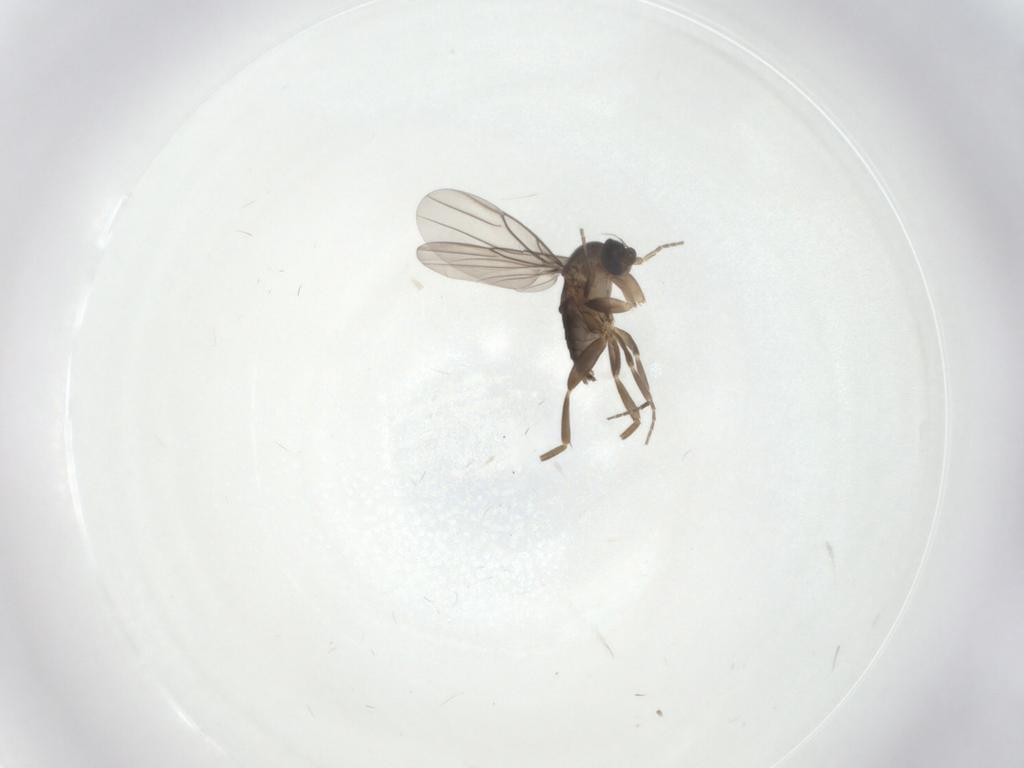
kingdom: Animalia
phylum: Arthropoda
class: Insecta
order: Diptera
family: Phoridae
